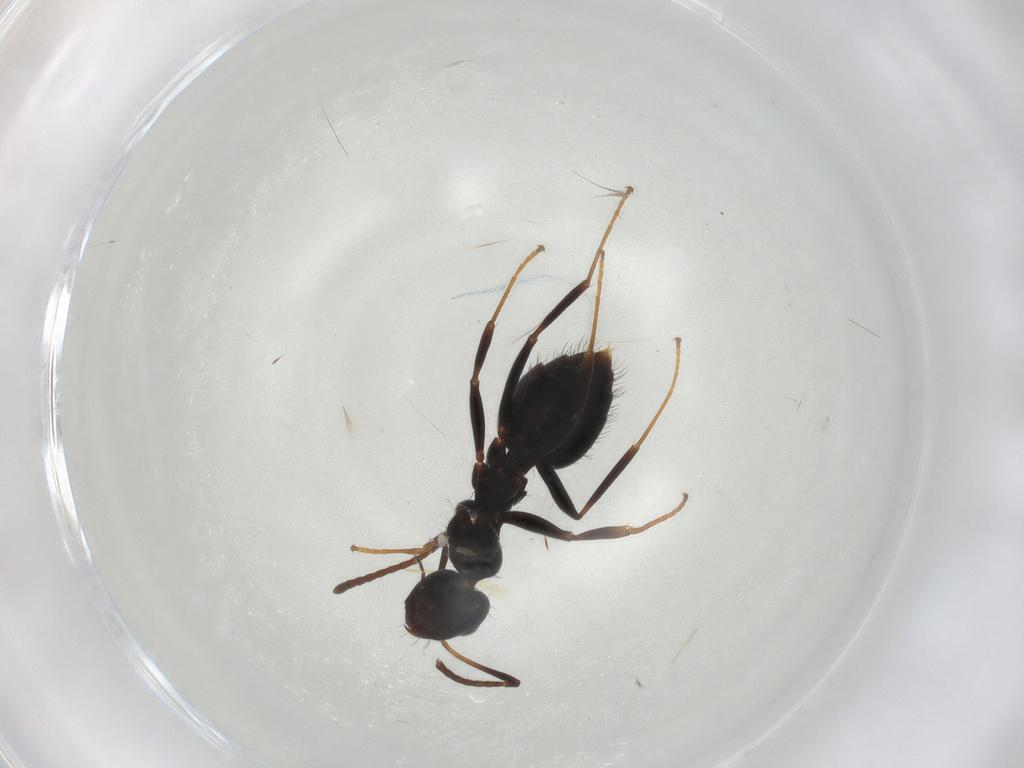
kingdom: Animalia
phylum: Arthropoda
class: Insecta
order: Hymenoptera
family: Formicidae
